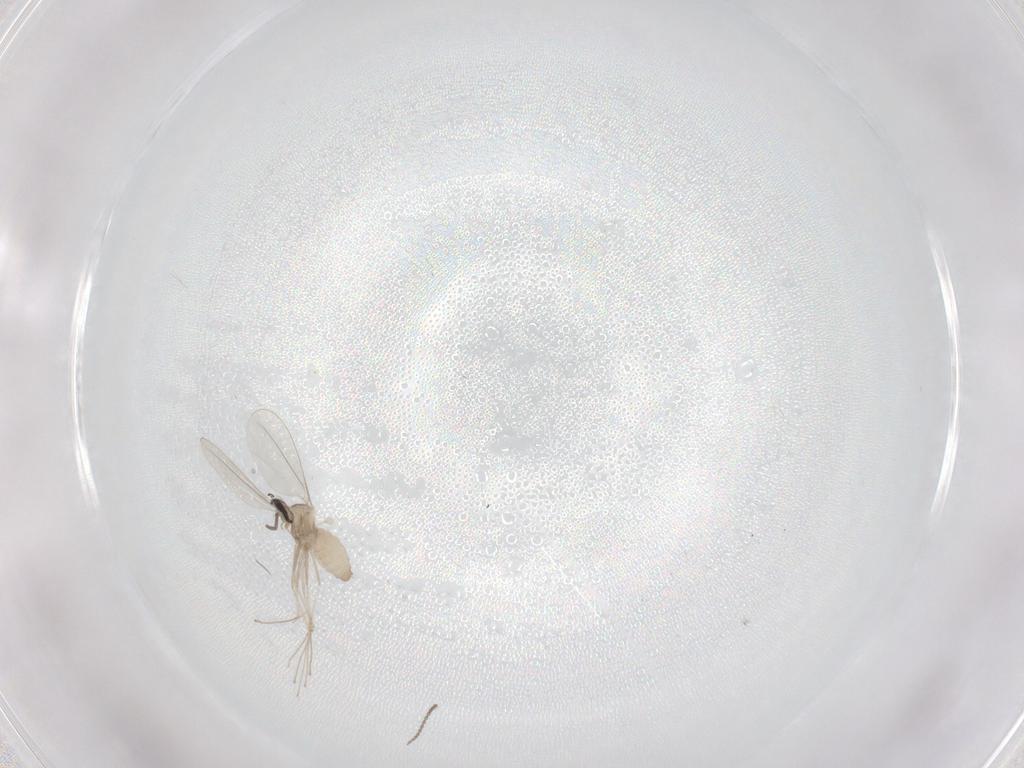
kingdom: Animalia
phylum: Arthropoda
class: Insecta
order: Diptera
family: Cecidomyiidae
